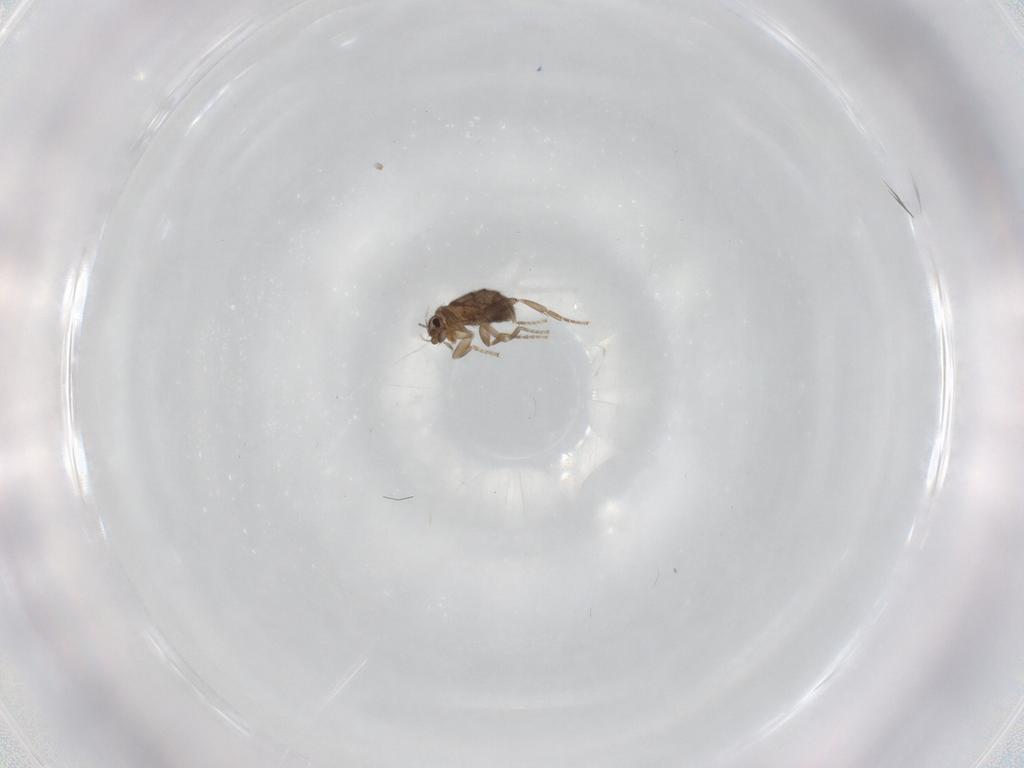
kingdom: Animalia
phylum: Arthropoda
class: Insecta
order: Diptera
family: Phoridae
